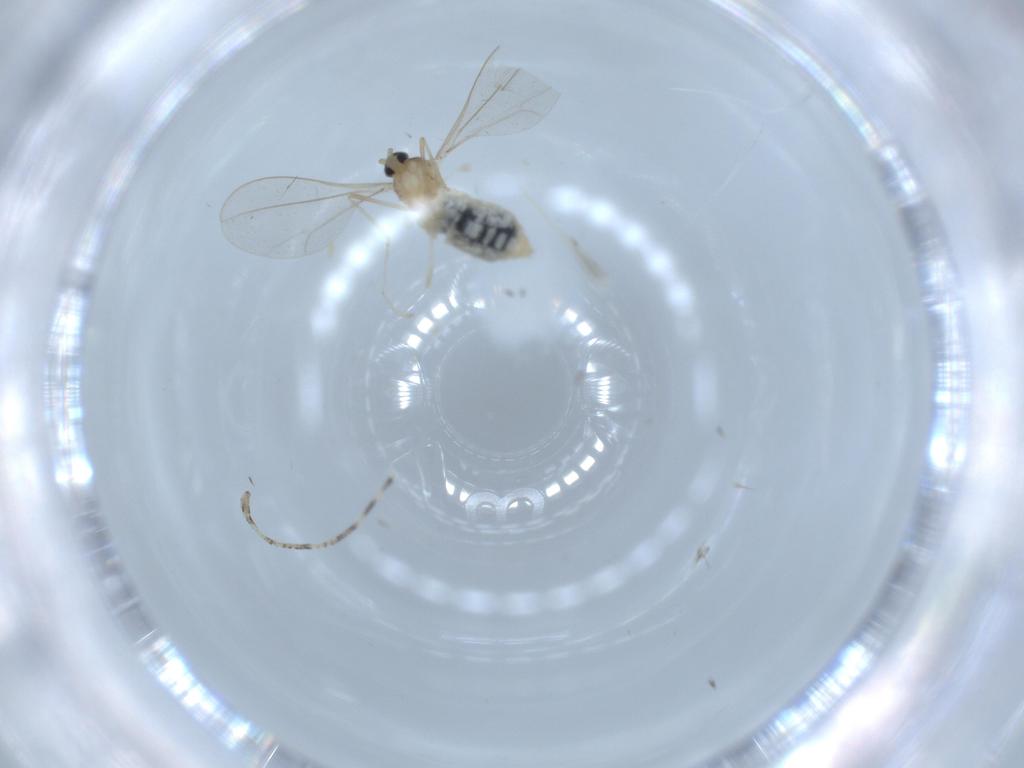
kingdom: Animalia
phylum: Arthropoda
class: Insecta
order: Diptera
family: Cecidomyiidae
